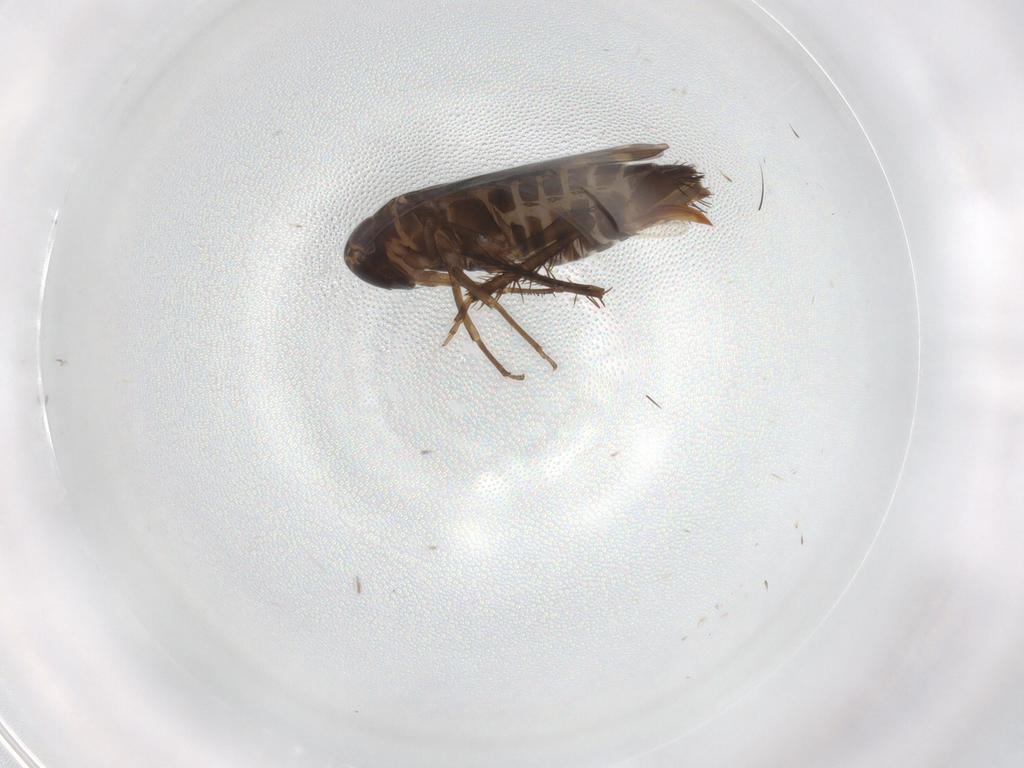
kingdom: Animalia
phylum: Arthropoda
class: Insecta
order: Hemiptera
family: Cicadellidae
